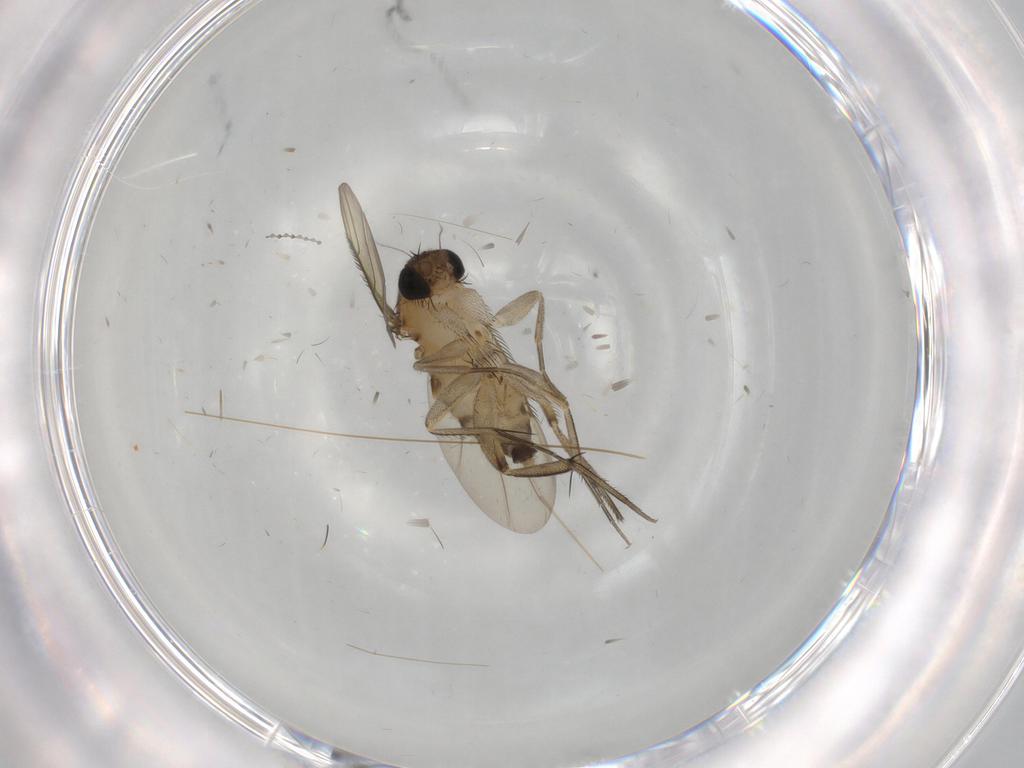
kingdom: Animalia
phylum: Arthropoda
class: Insecta
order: Diptera
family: Phoridae
